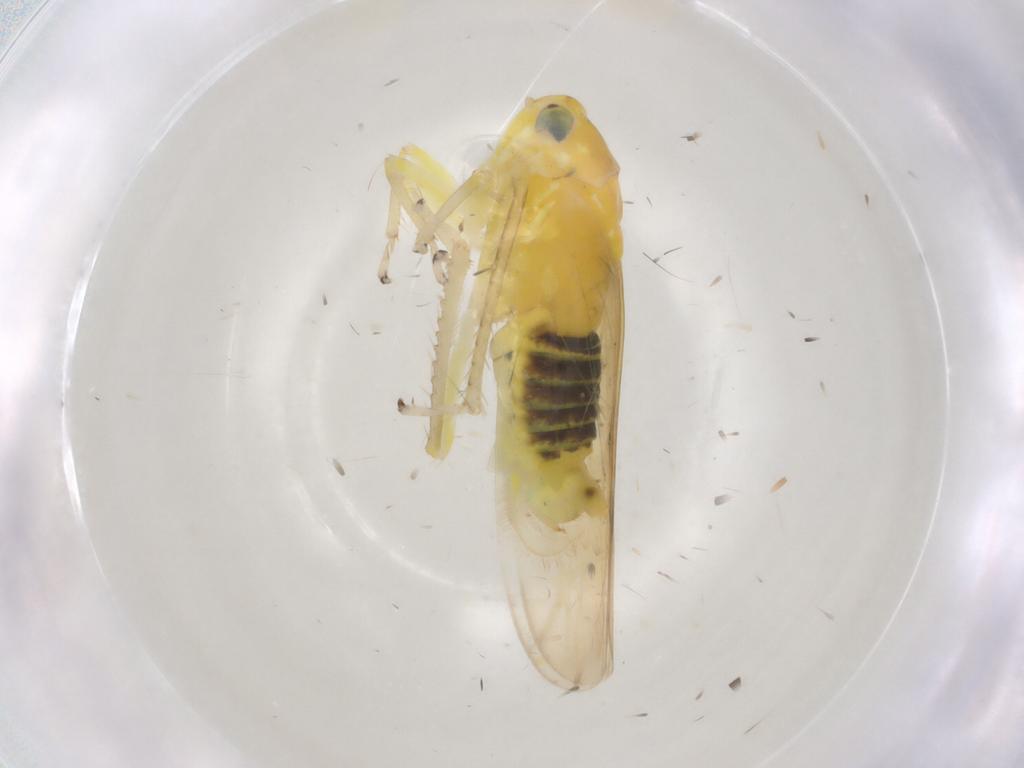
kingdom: Animalia
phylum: Arthropoda
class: Insecta
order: Hemiptera
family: Cicadellidae
